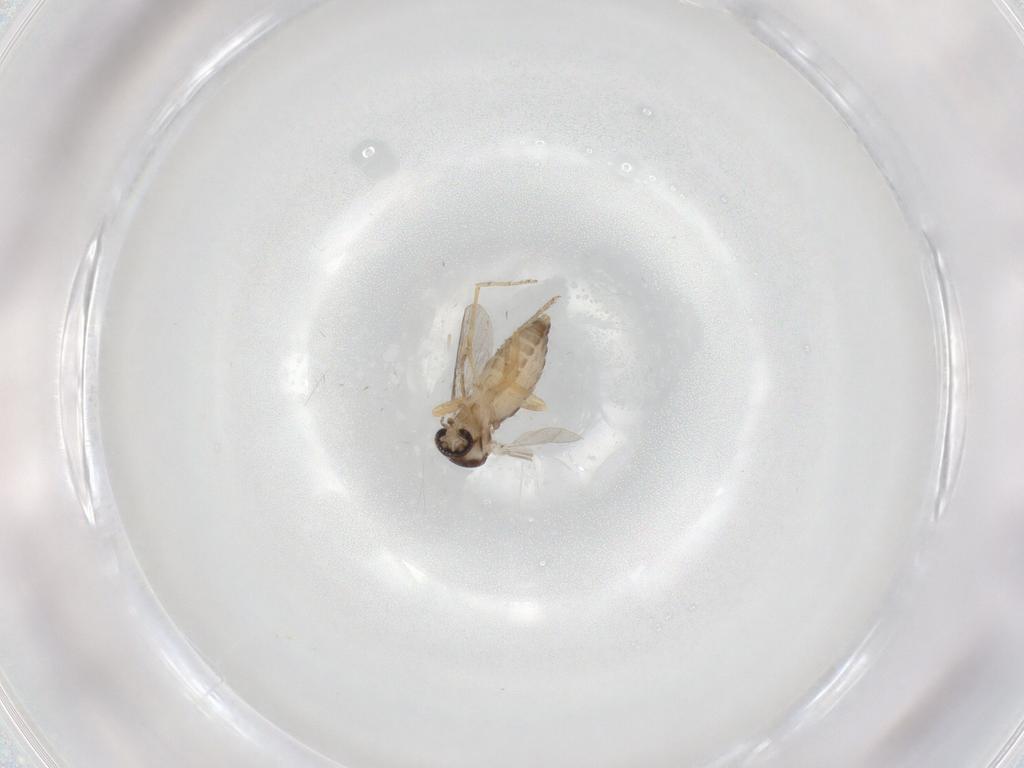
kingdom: Animalia
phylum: Arthropoda
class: Insecta
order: Diptera
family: Ceratopogonidae
